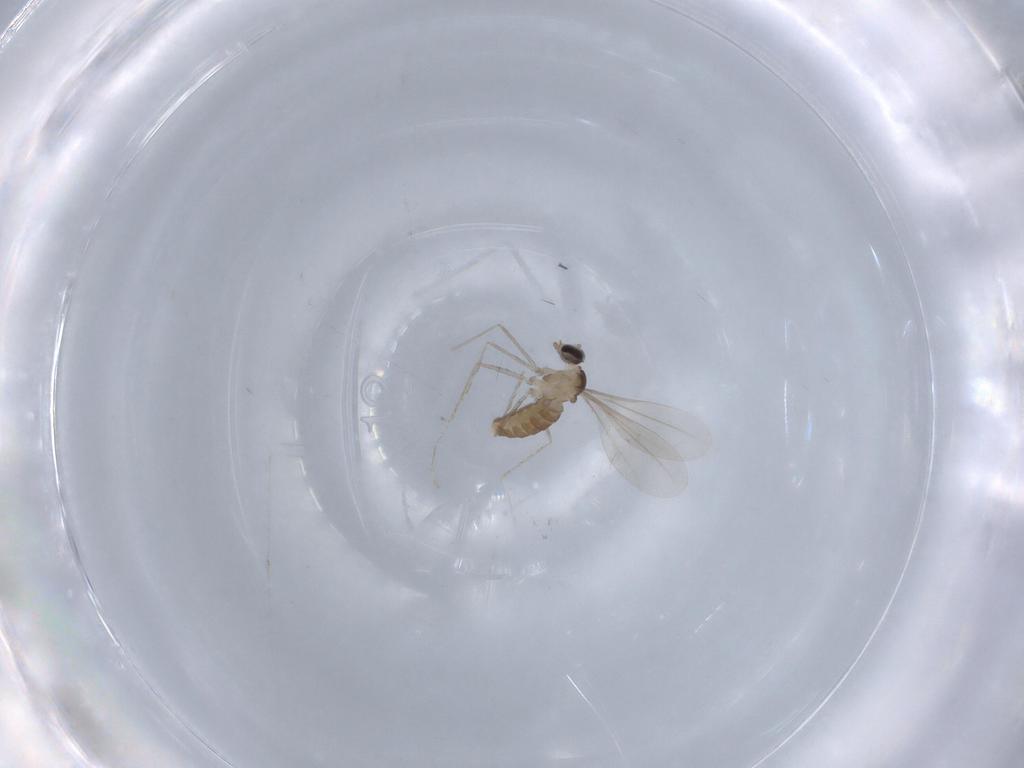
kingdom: Animalia
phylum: Arthropoda
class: Insecta
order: Diptera
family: Cecidomyiidae
